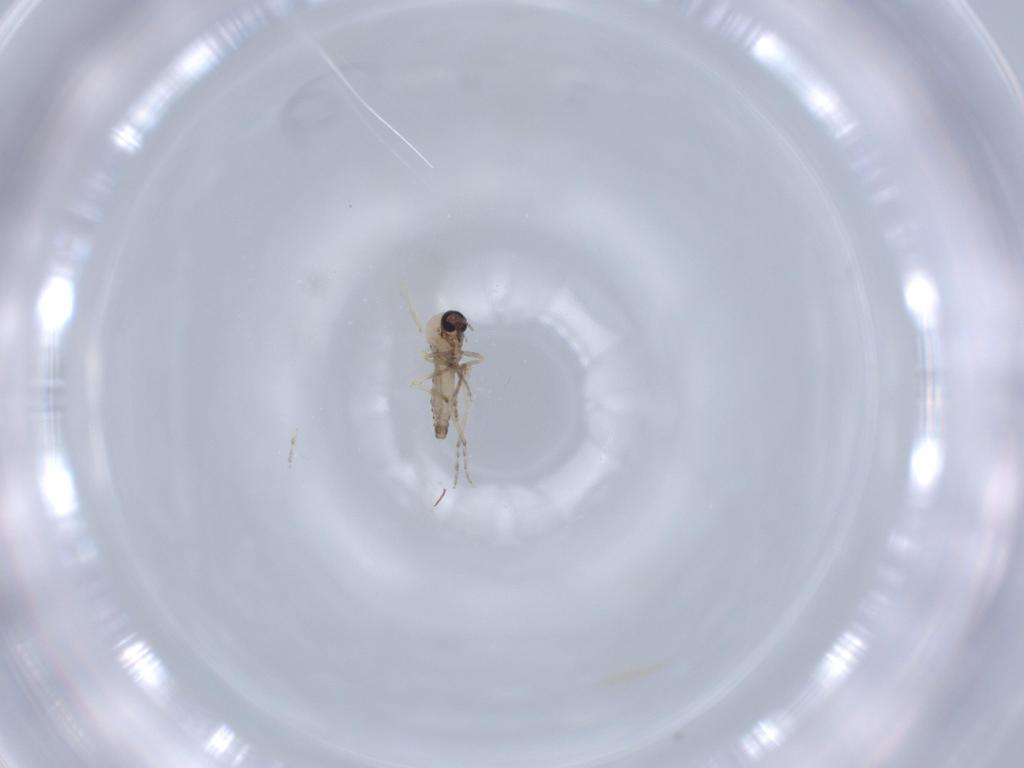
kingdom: Animalia
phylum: Arthropoda
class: Insecta
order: Diptera
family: Ceratopogonidae
